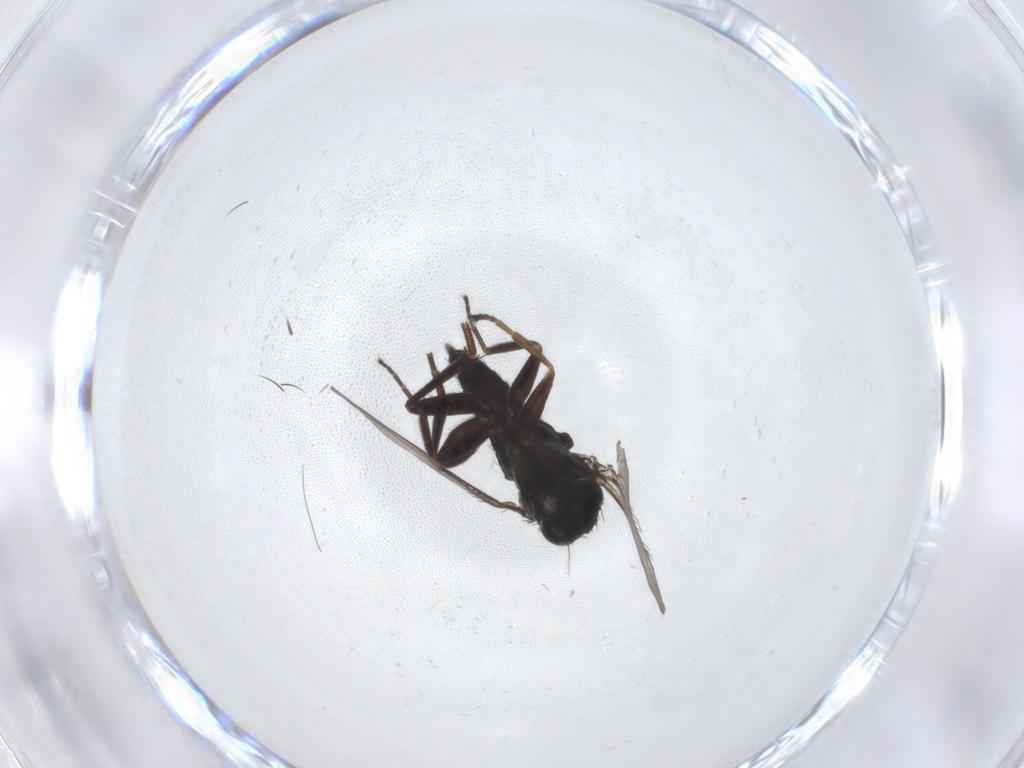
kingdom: Animalia
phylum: Arthropoda
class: Insecta
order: Diptera
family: Phoridae
